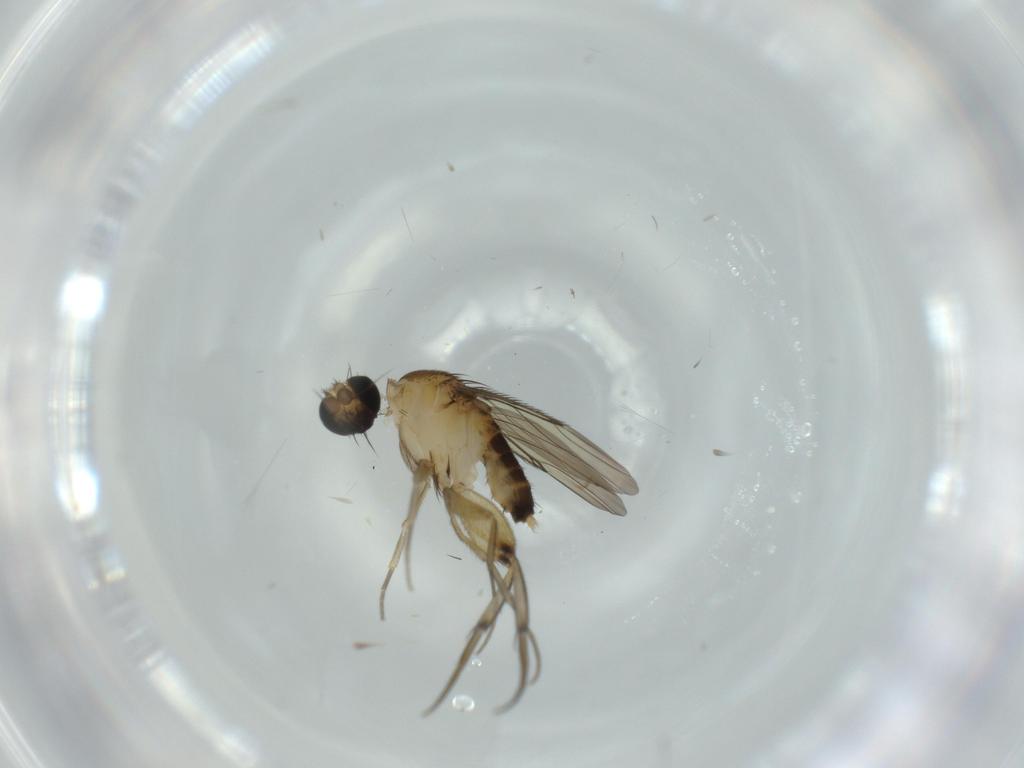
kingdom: Animalia
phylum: Arthropoda
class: Insecta
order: Diptera
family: Phoridae
